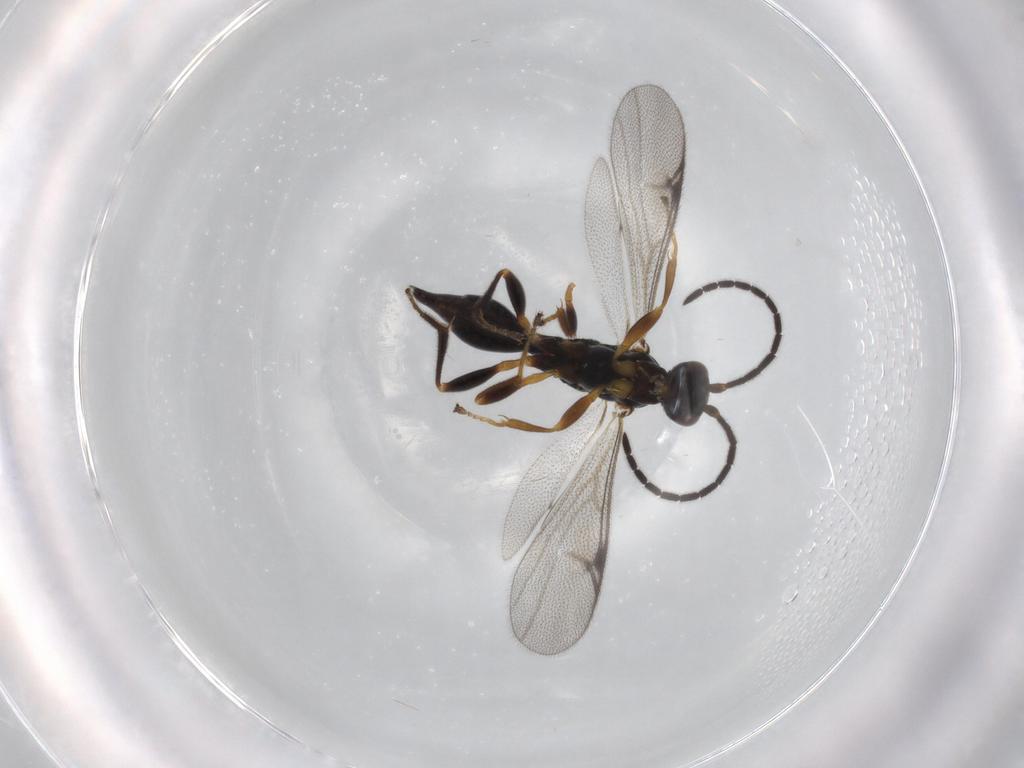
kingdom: Animalia
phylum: Arthropoda
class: Insecta
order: Hymenoptera
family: Proctotrupidae
